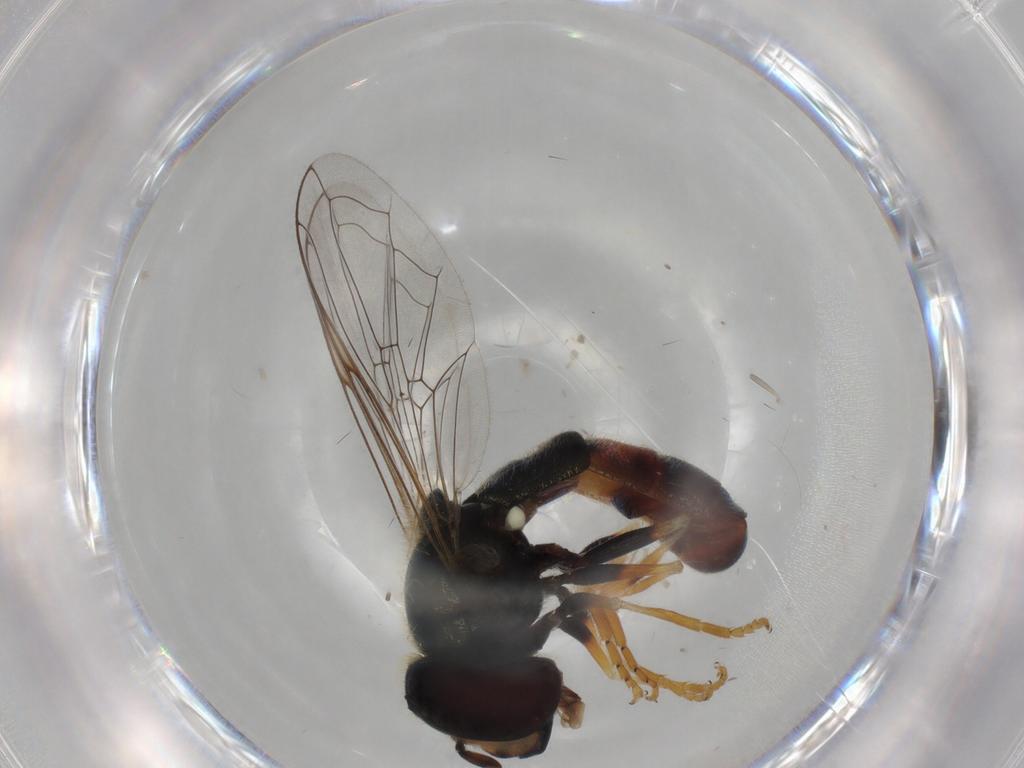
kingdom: Animalia
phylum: Arthropoda
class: Insecta
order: Diptera
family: Syrphidae
